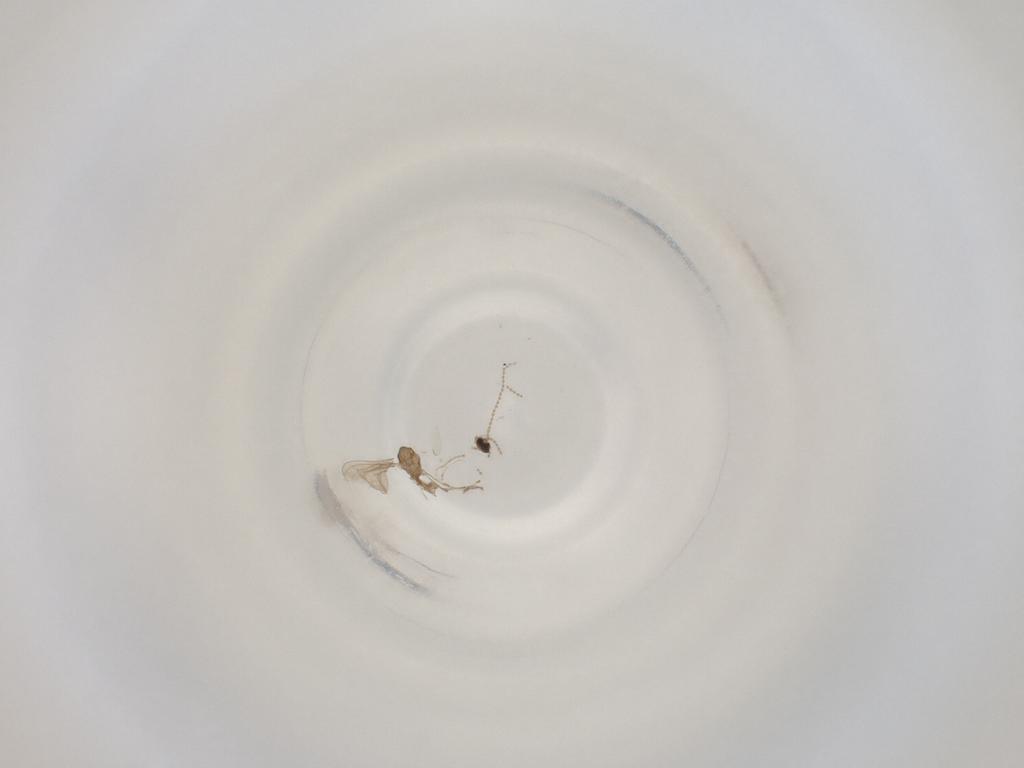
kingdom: Animalia
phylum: Arthropoda
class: Insecta
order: Diptera
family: Cecidomyiidae
